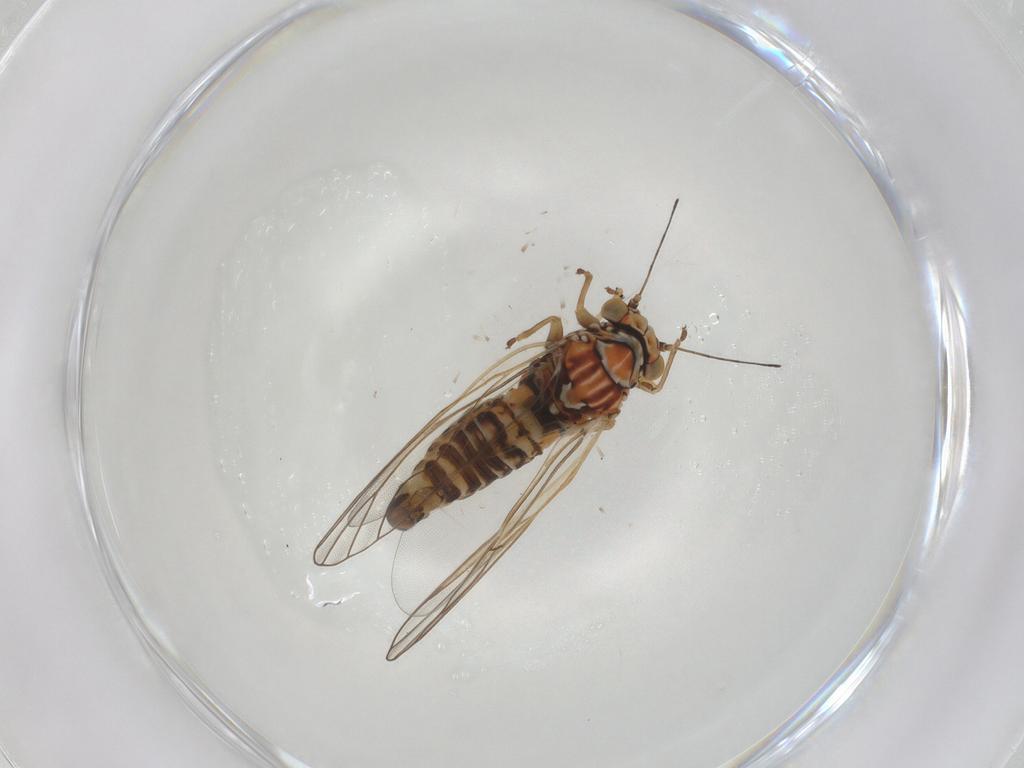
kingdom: Animalia
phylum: Arthropoda
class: Insecta
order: Hemiptera
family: Psyllidae
